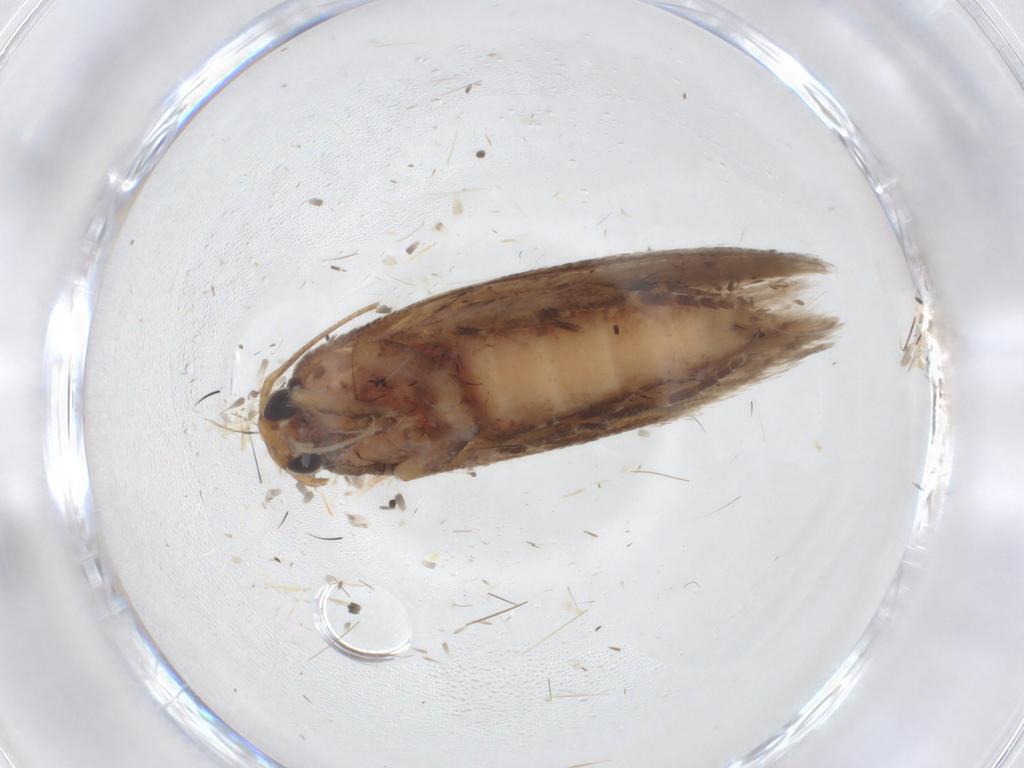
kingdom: Animalia
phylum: Arthropoda
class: Insecta
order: Lepidoptera
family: Gelechiidae
